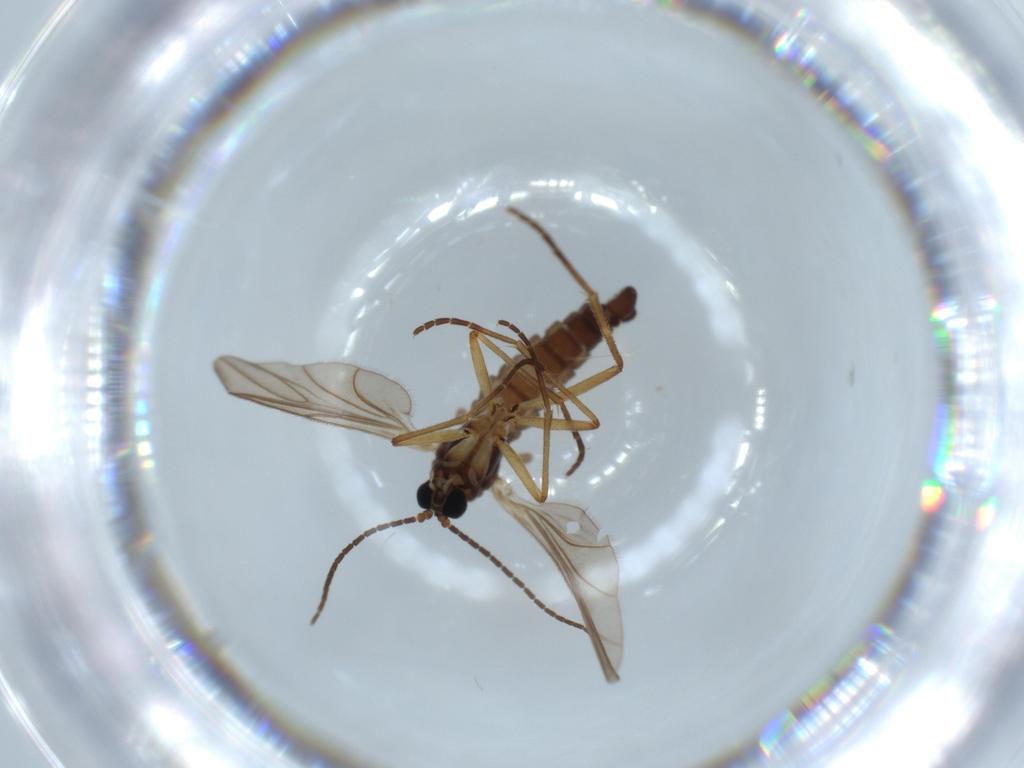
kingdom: Animalia
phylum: Arthropoda
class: Insecta
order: Diptera
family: Sciaridae
